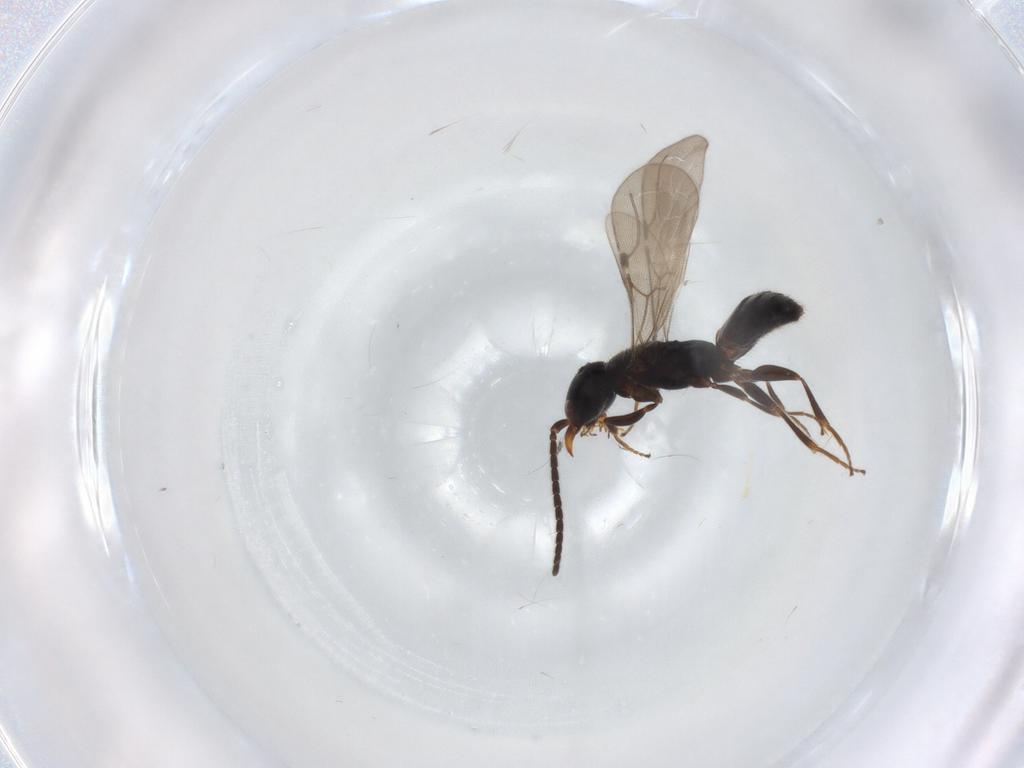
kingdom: Animalia
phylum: Arthropoda
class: Insecta
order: Hymenoptera
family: Bethylidae
